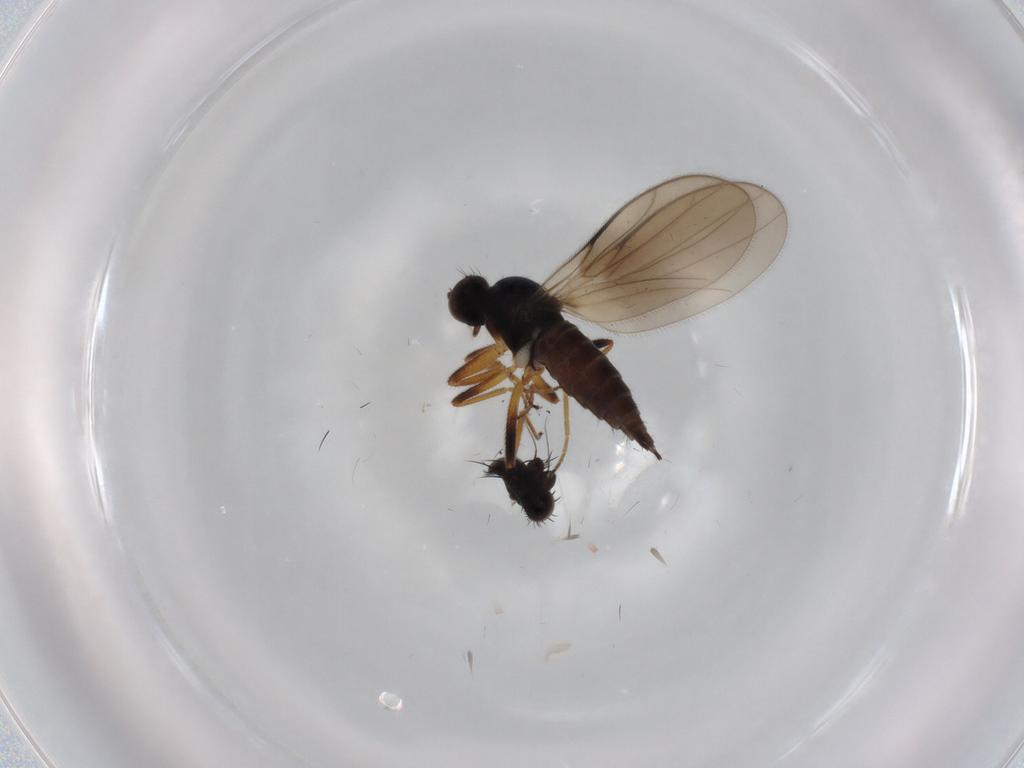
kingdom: Animalia
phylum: Arthropoda
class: Insecta
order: Diptera
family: Hybotidae
